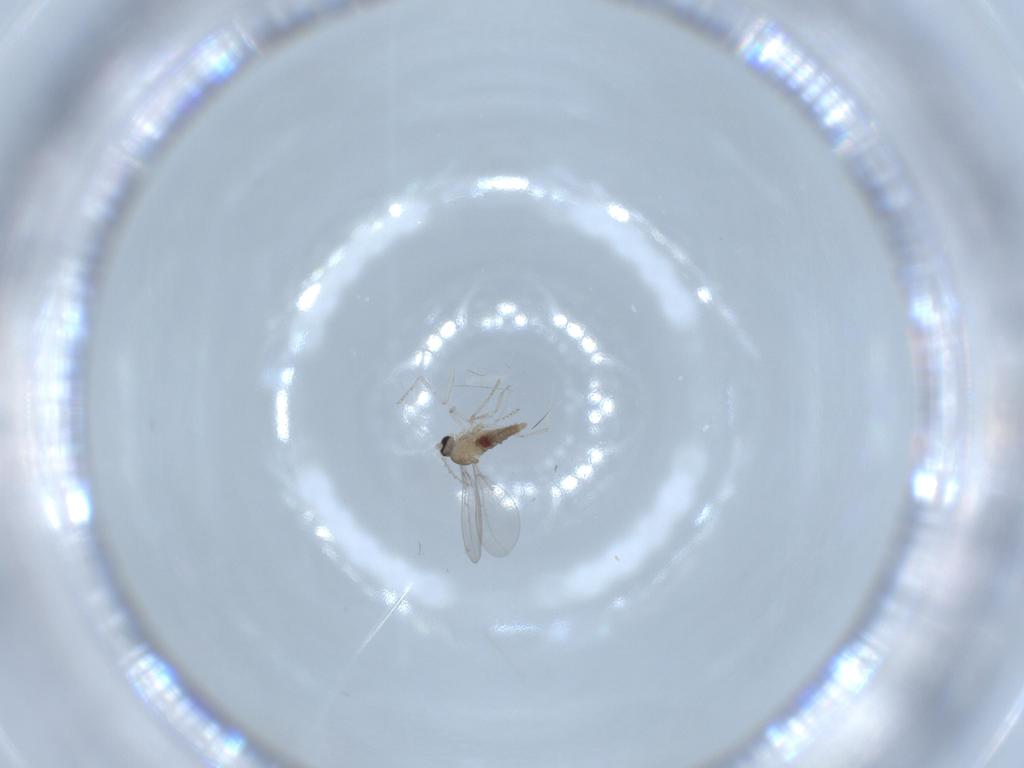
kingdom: Animalia
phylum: Arthropoda
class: Insecta
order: Diptera
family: Cecidomyiidae
